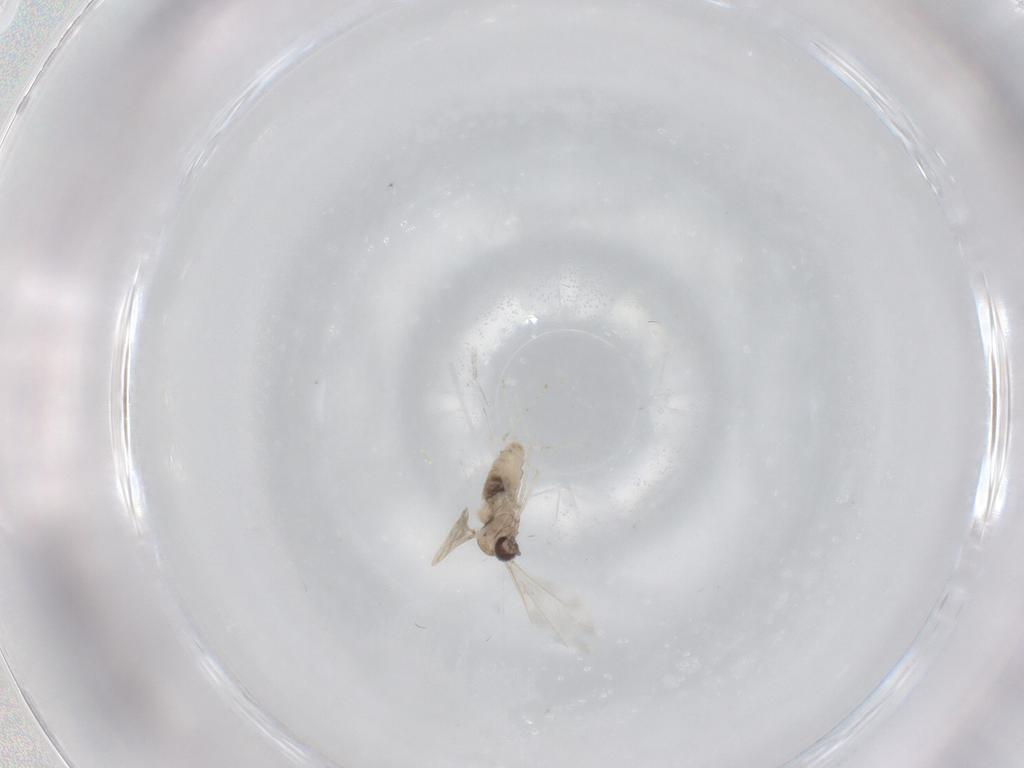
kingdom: Animalia
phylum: Arthropoda
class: Insecta
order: Diptera
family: Cecidomyiidae
